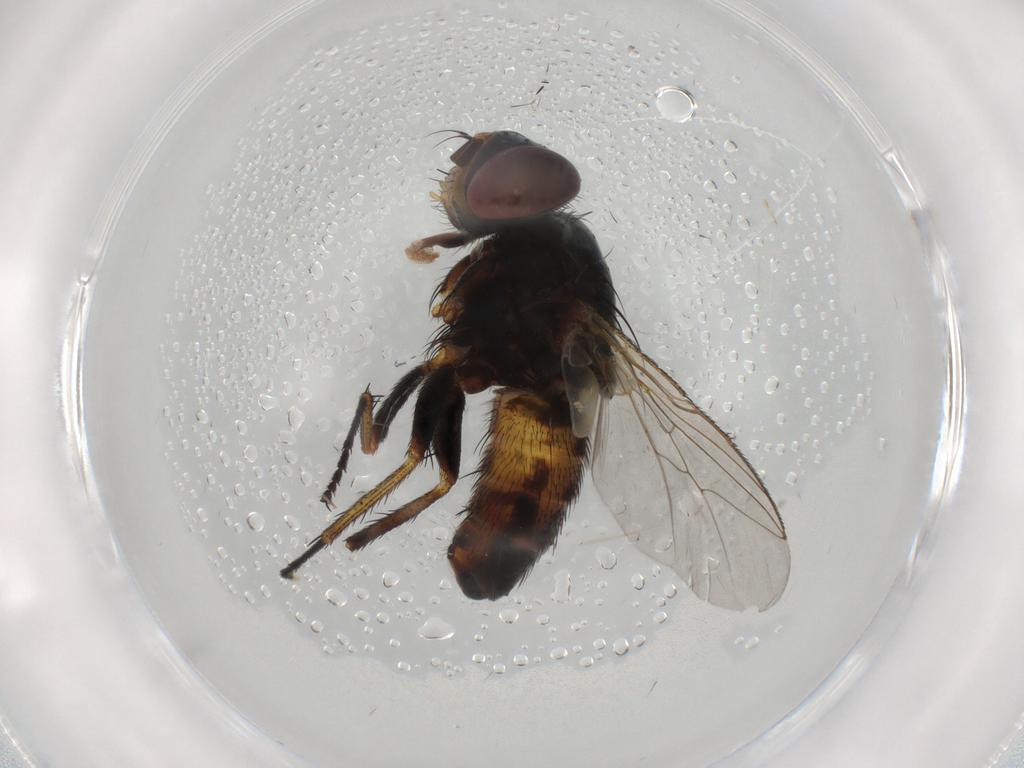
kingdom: Animalia
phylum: Arthropoda
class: Insecta
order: Diptera
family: Sarcophagidae
